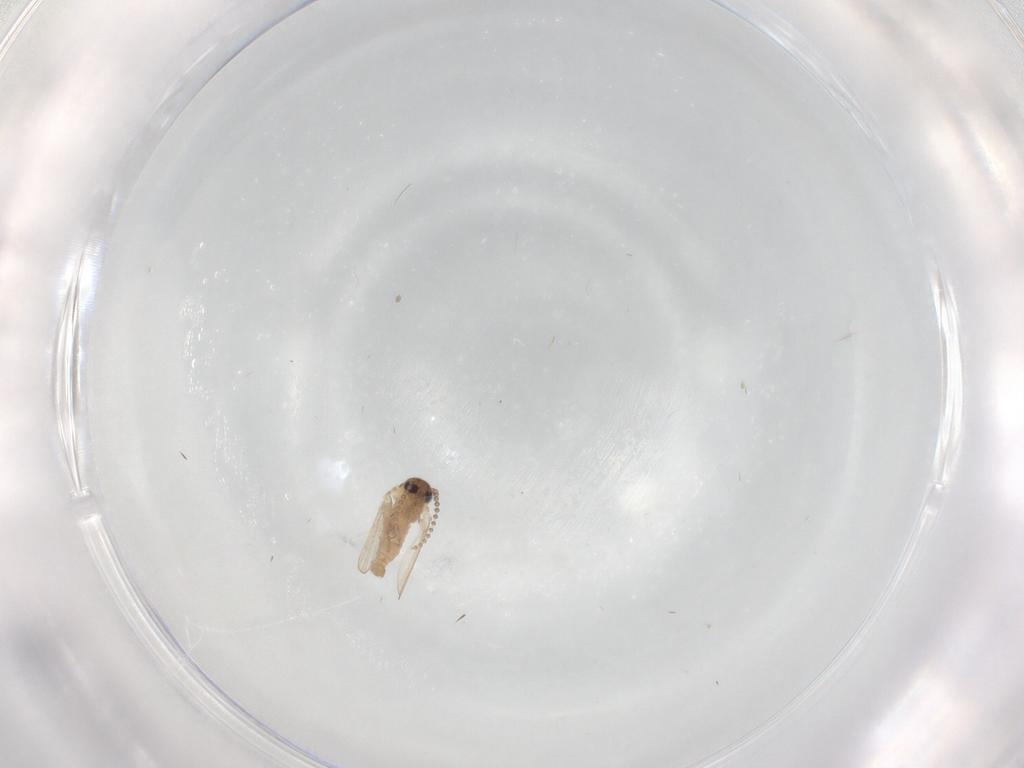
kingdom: Animalia
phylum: Arthropoda
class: Insecta
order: Diptera
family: Psychodidae
